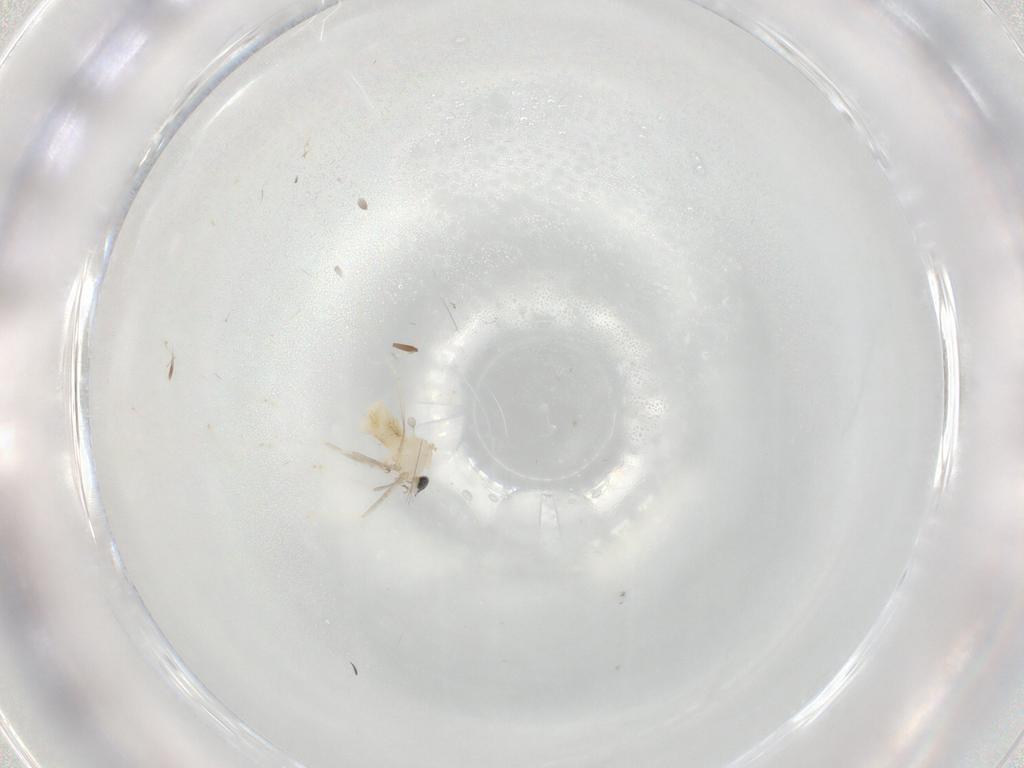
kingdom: Animalia
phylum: Arthropoda
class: Insecta
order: Diptera
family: Cecidomyiidae
